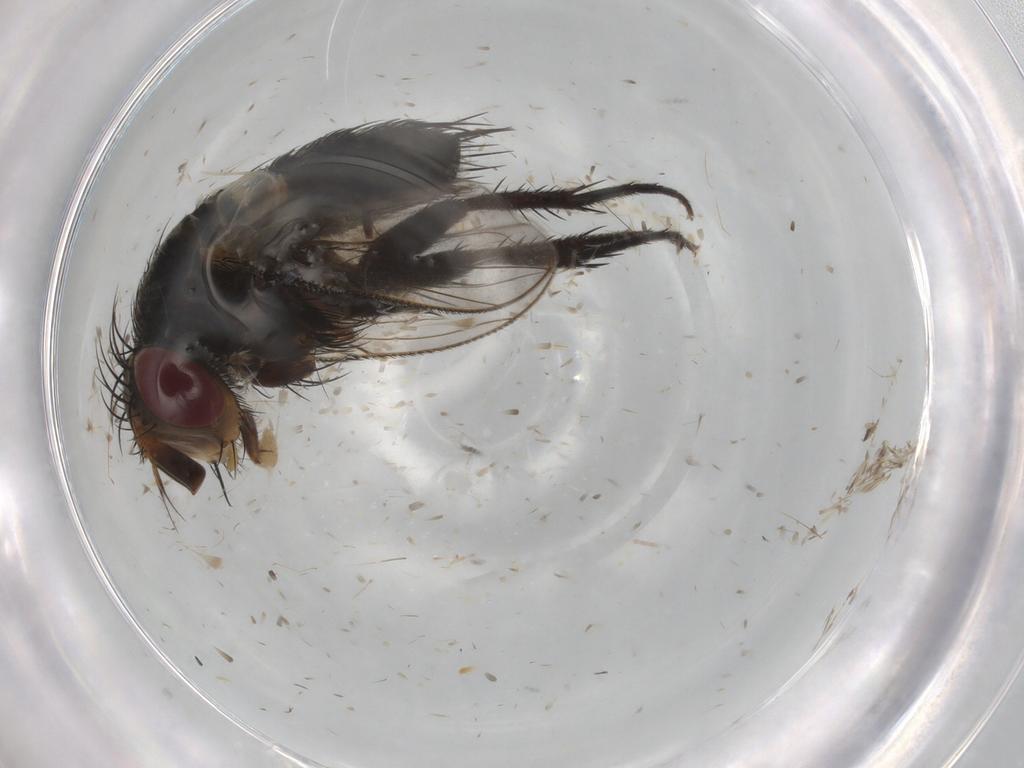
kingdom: Animalia
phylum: Arthropoda
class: Insecta
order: Diptera
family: Tachinidae
